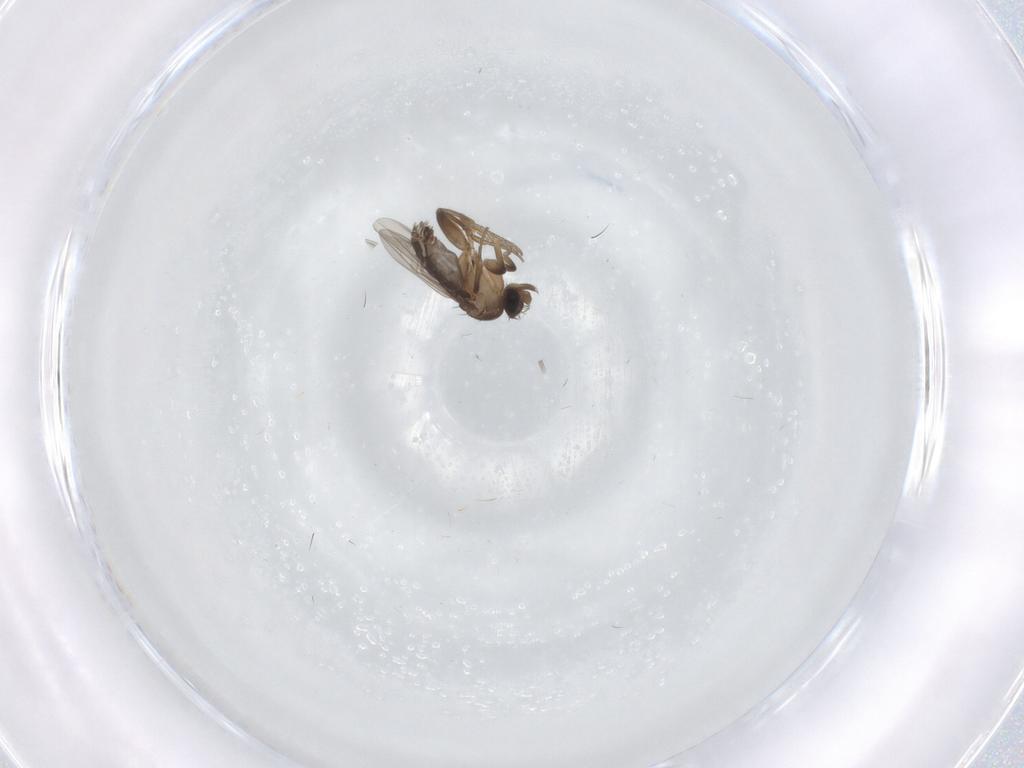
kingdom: Animalia
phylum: Arthropoda
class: Insecta
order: Diptera
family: Phoridae
